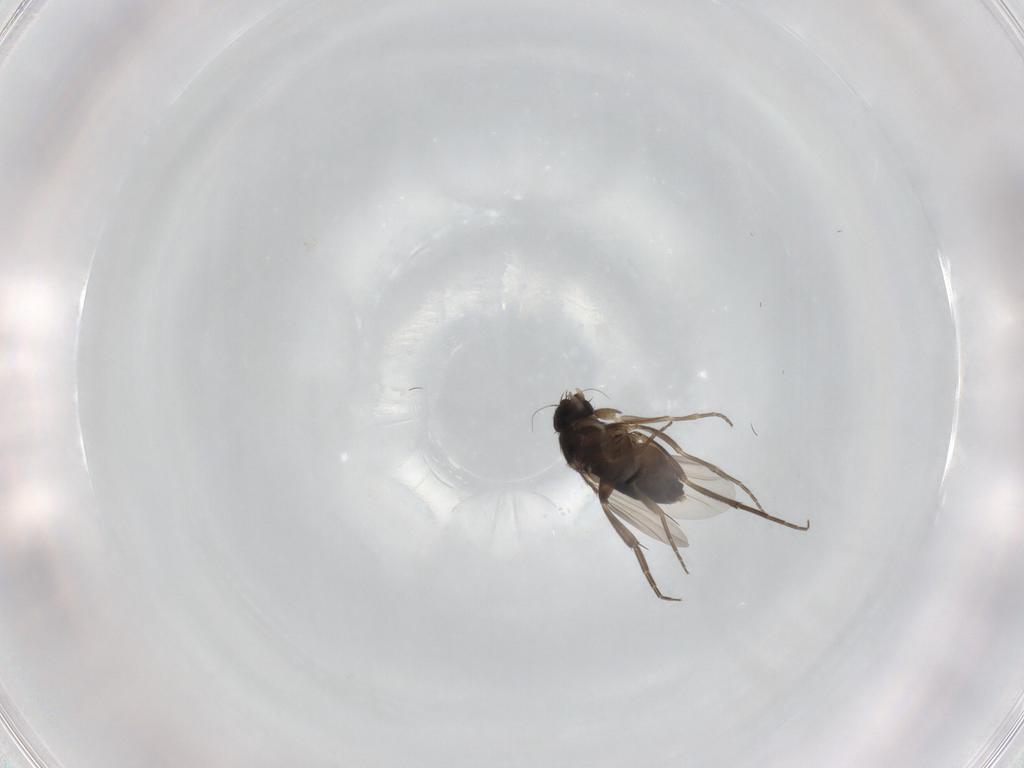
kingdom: Animalia
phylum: Arthropoda
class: Insecta
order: Diptera
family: Phoridae
